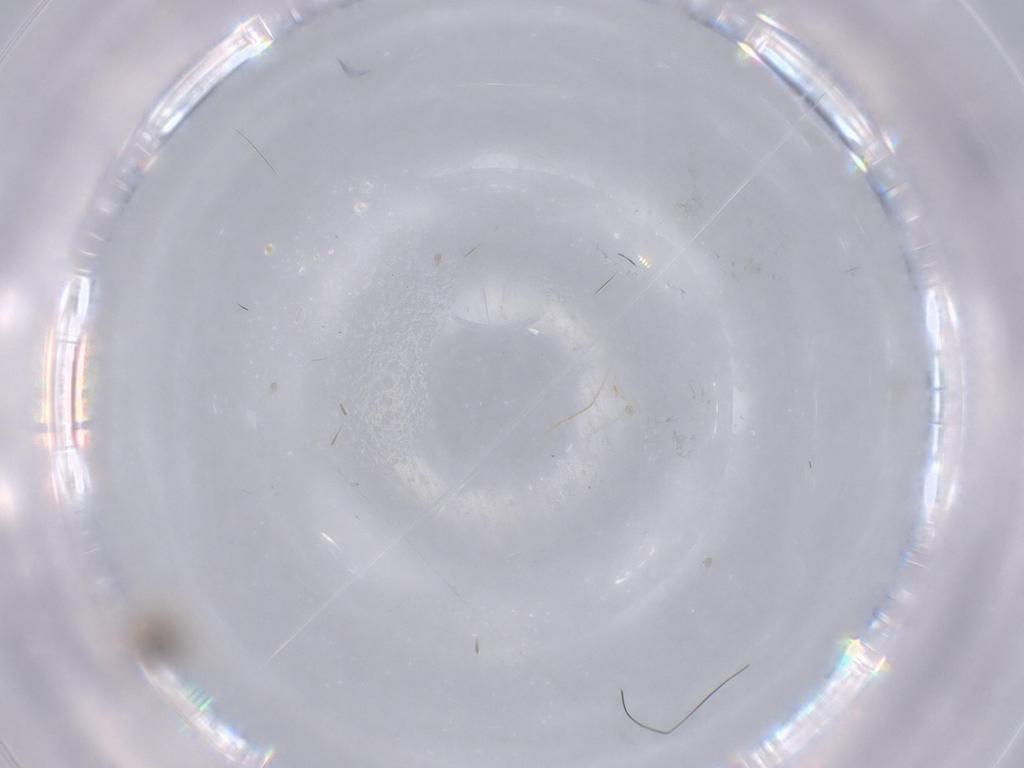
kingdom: Animalia
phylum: Arthropoda
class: Insecta
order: Diptera
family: Cecidomyiidae
